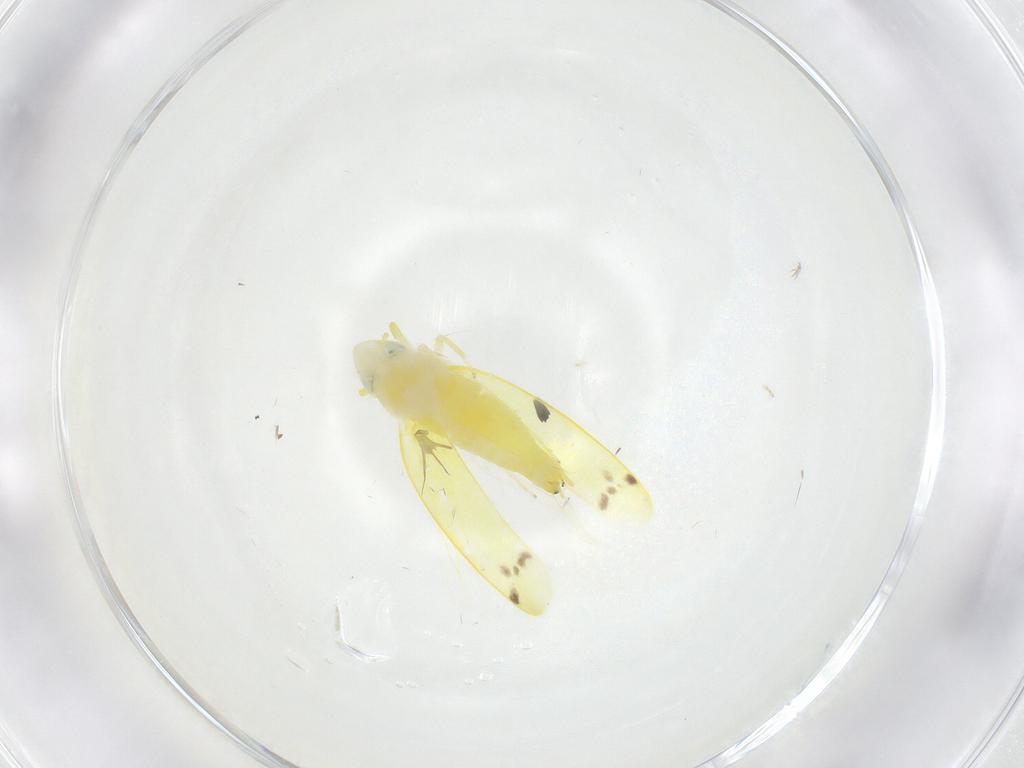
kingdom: Animalia
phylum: Arthropoda
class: Insecta
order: Hemiptera
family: Cicadellidae
